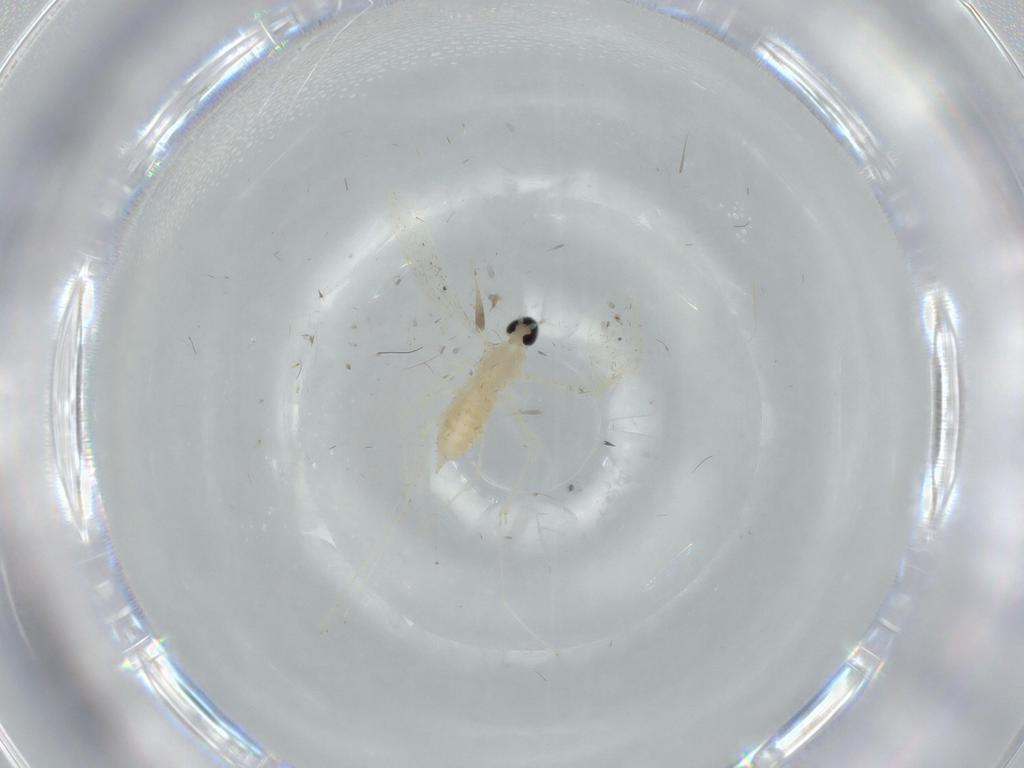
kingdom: Animalia
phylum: Arthropoda
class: Insecta
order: Diptera
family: Cecidomyiidae
